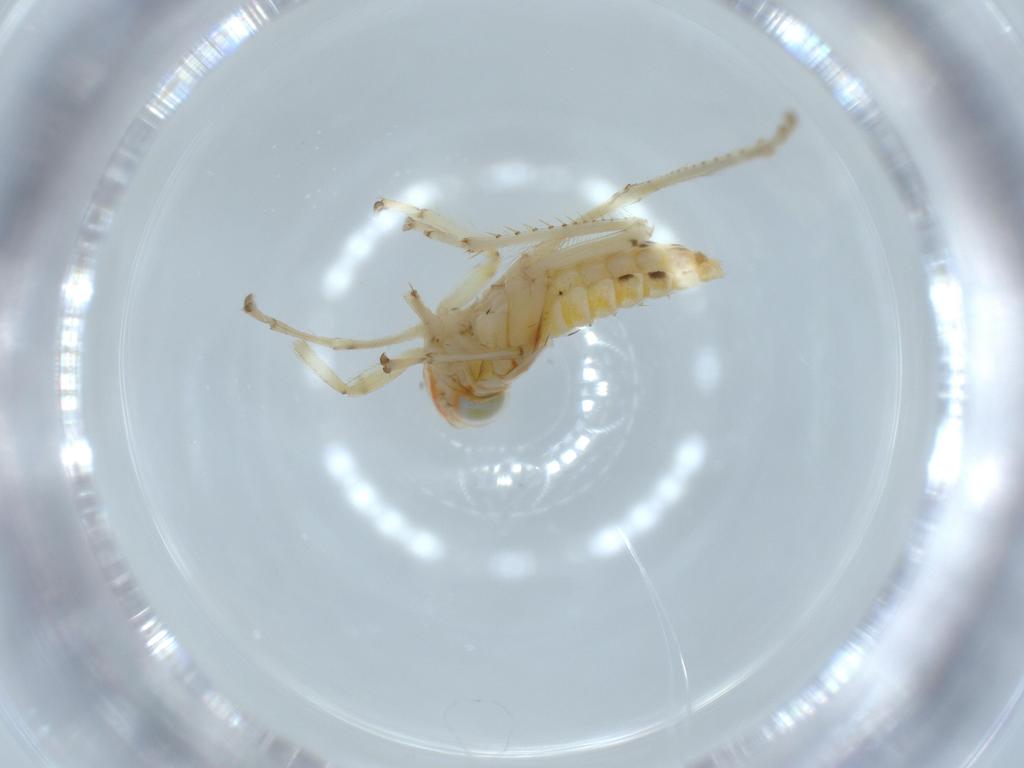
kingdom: Animalia
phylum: Arthropoda
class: Insecta
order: Hemiptera
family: Cicadellidae
